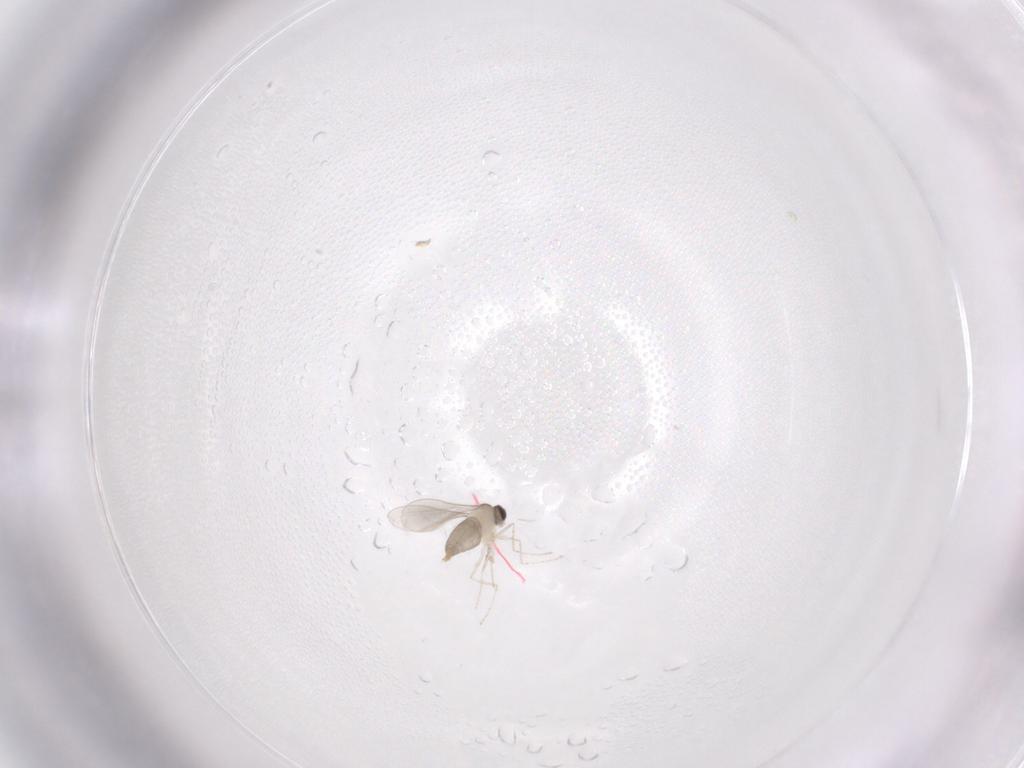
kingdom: Animalia
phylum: Arthropoda
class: Insecta
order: Diptera
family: Cecidomyiidae
